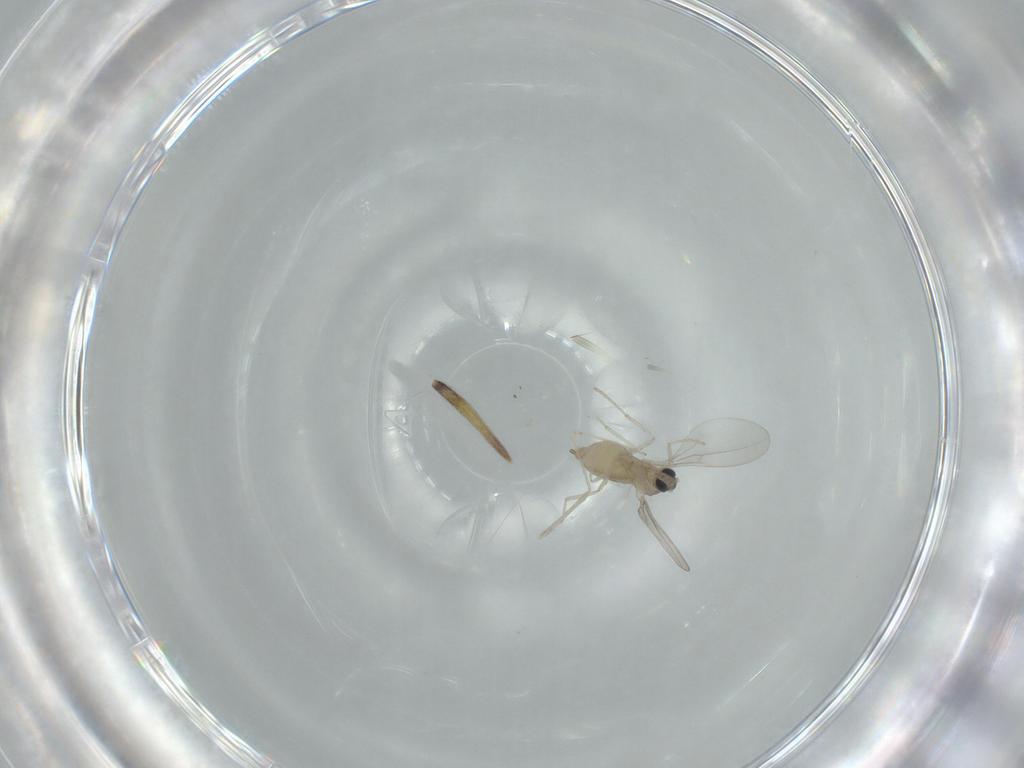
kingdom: Animalia
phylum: Arthropoda
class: Insecta
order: Diptera
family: Cecidomyiidae
